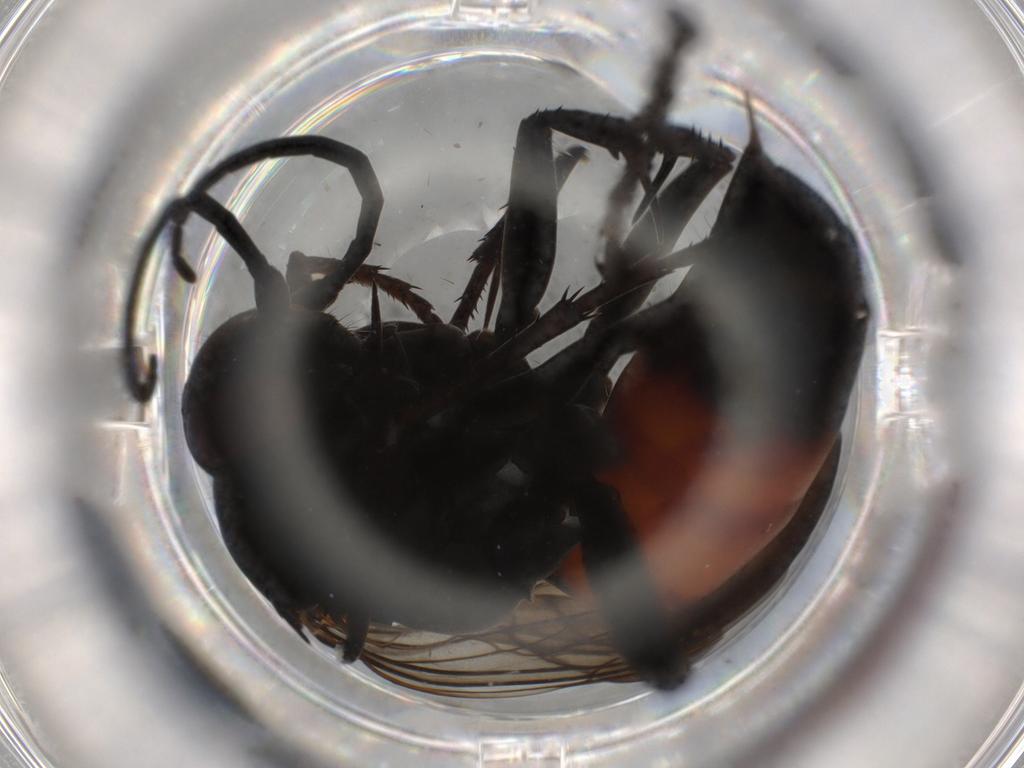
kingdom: Animalia
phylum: Arthropoda
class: Insecta
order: Hymenoptera
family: Pompilidae
